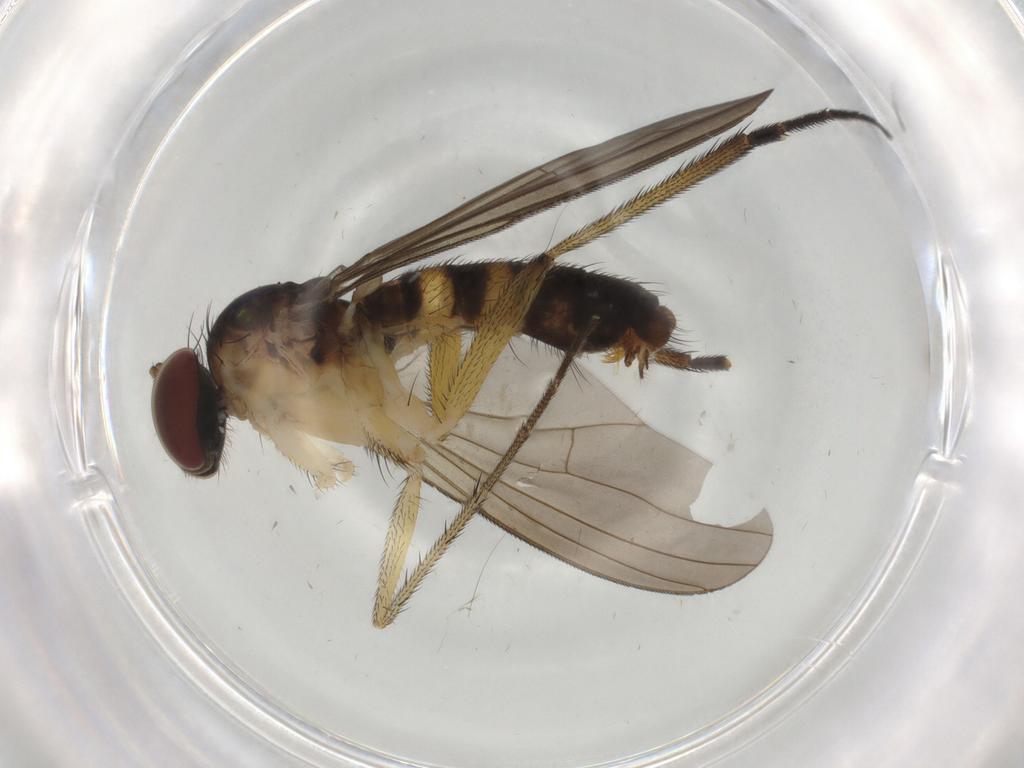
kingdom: Animalia
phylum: Arthropoda
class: Insecta
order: Diptera
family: Dolichopodidae
